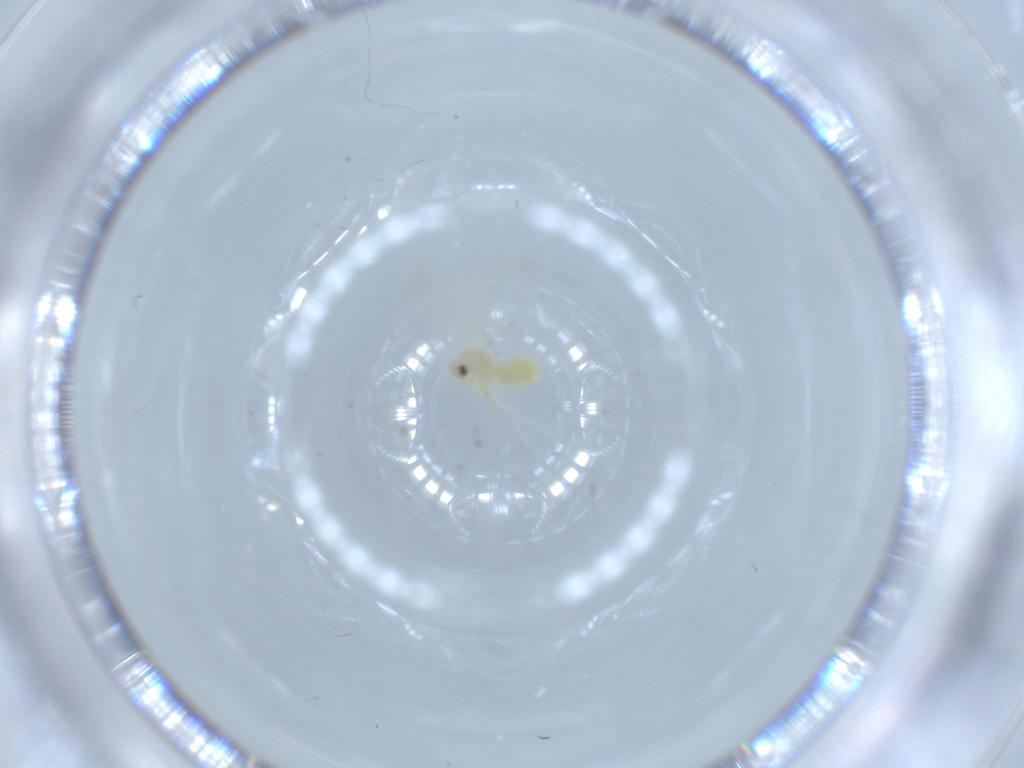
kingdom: Animalia
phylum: Arthropoda
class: Insecta
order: Hemiptera
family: Aleyrodidae
